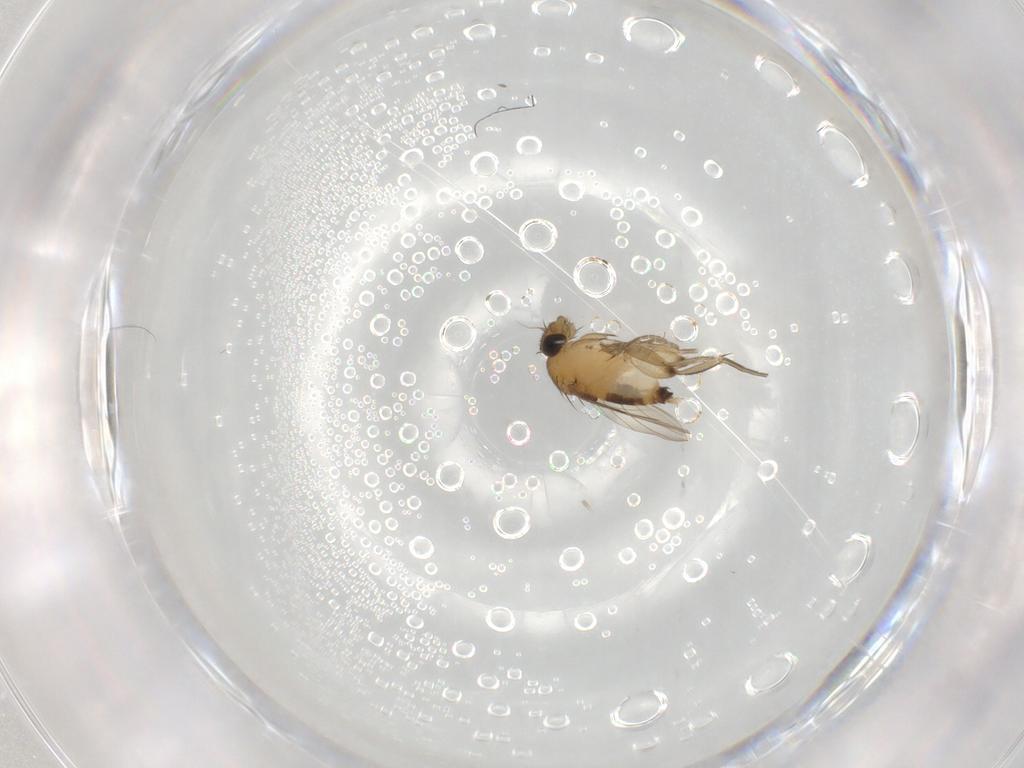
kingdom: Animalia
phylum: Arthropoda
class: Insecta
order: Diptera
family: Phoridae
